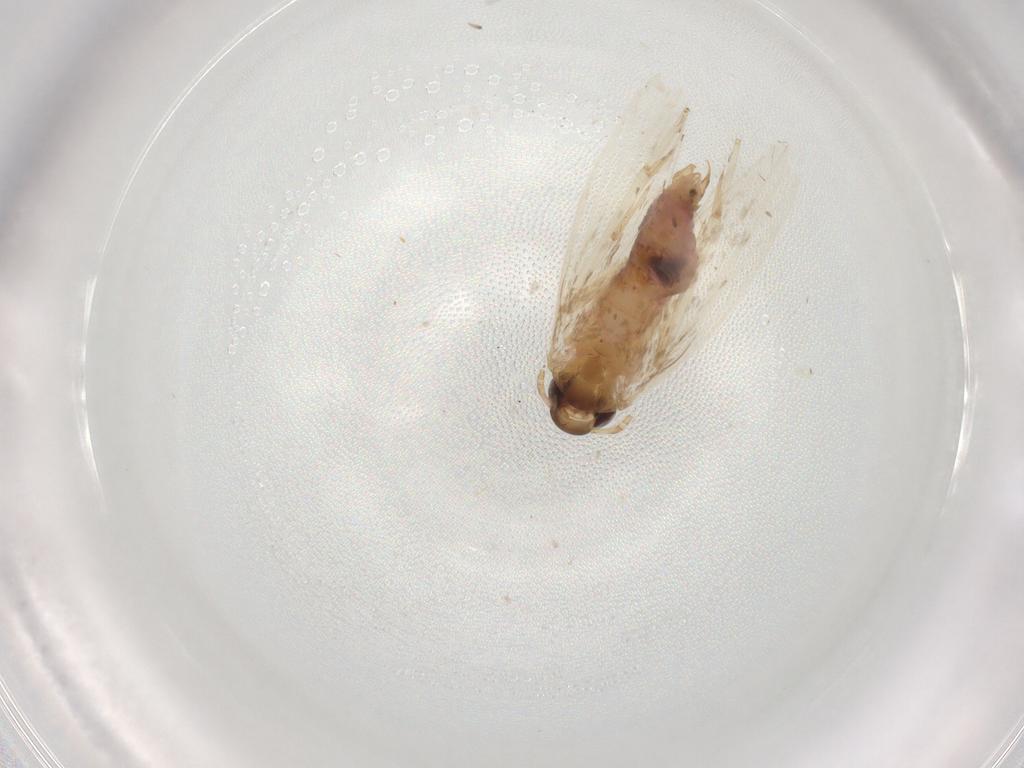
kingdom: Animalia
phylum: Arthropoda
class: Insecta
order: Lepidoptera
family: Gelechiidae
